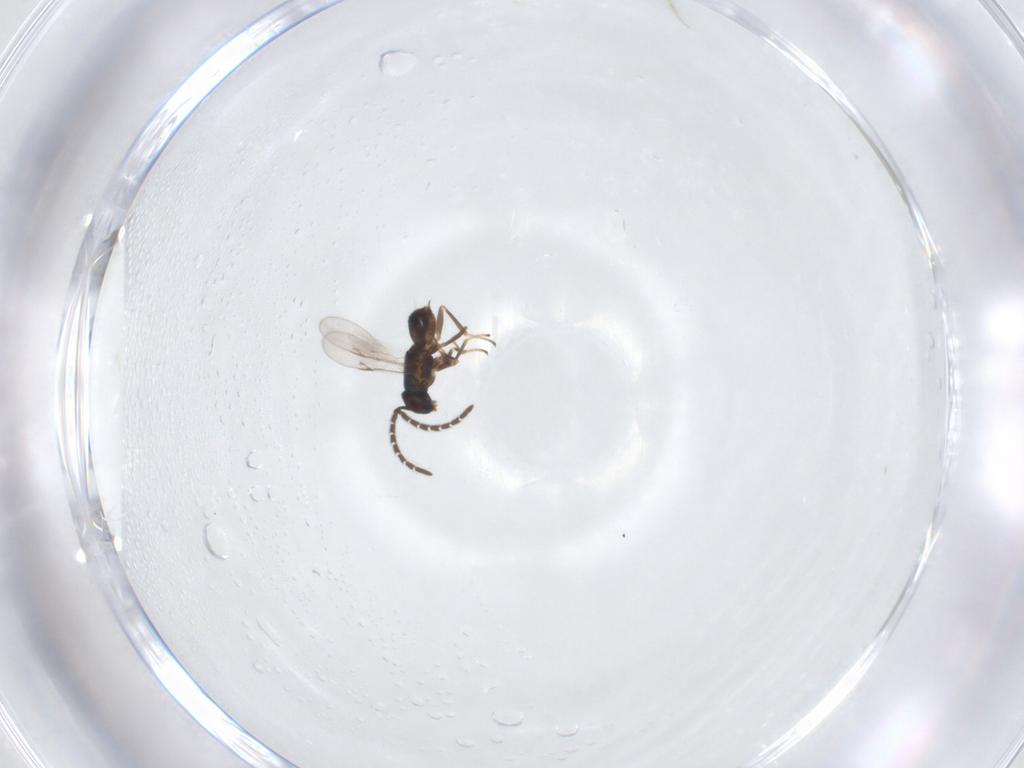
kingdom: Animalia
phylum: Arthropoda
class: Insecta
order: Hymenoptera
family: Encyrtidae
